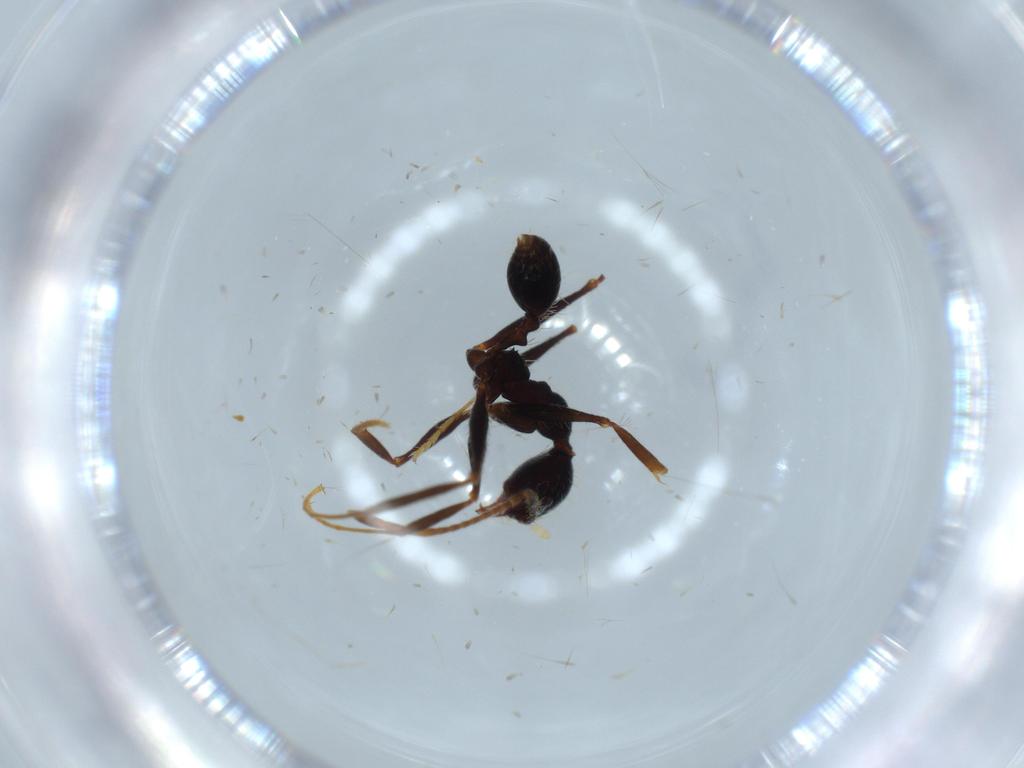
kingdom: Animalia
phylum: Arthropoda
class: Insecta
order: Hymenoptera
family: Formicidae
